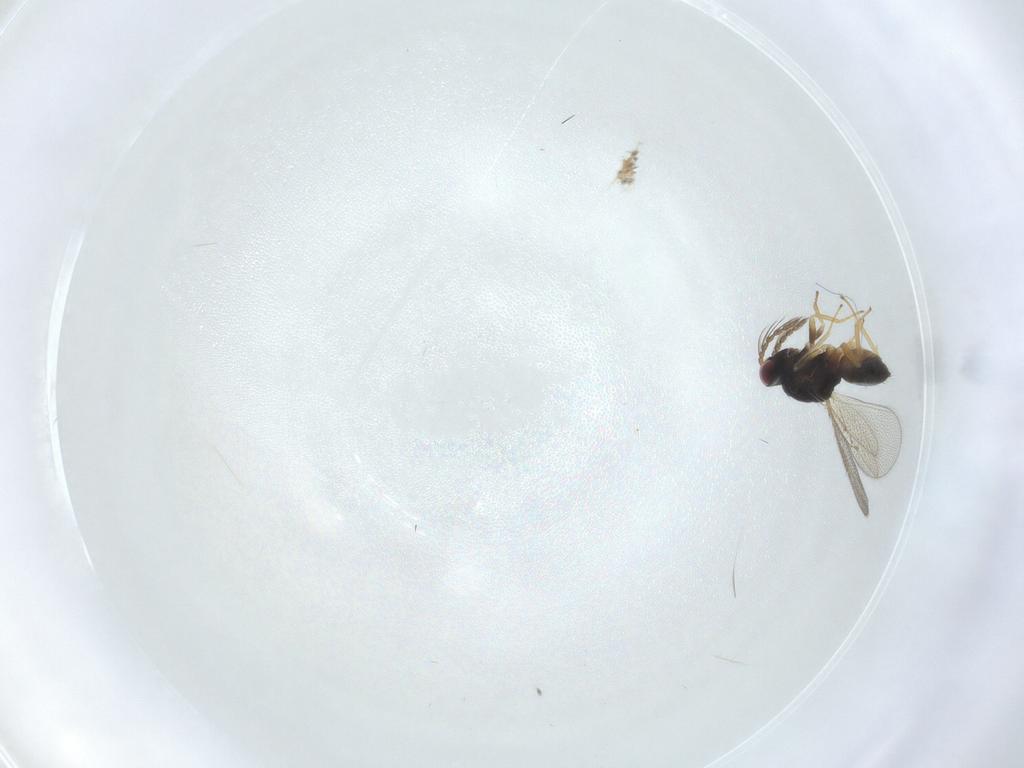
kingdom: Animalia
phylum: Arthropoda
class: Insecta
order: Hymenoptera
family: Eulophidae
